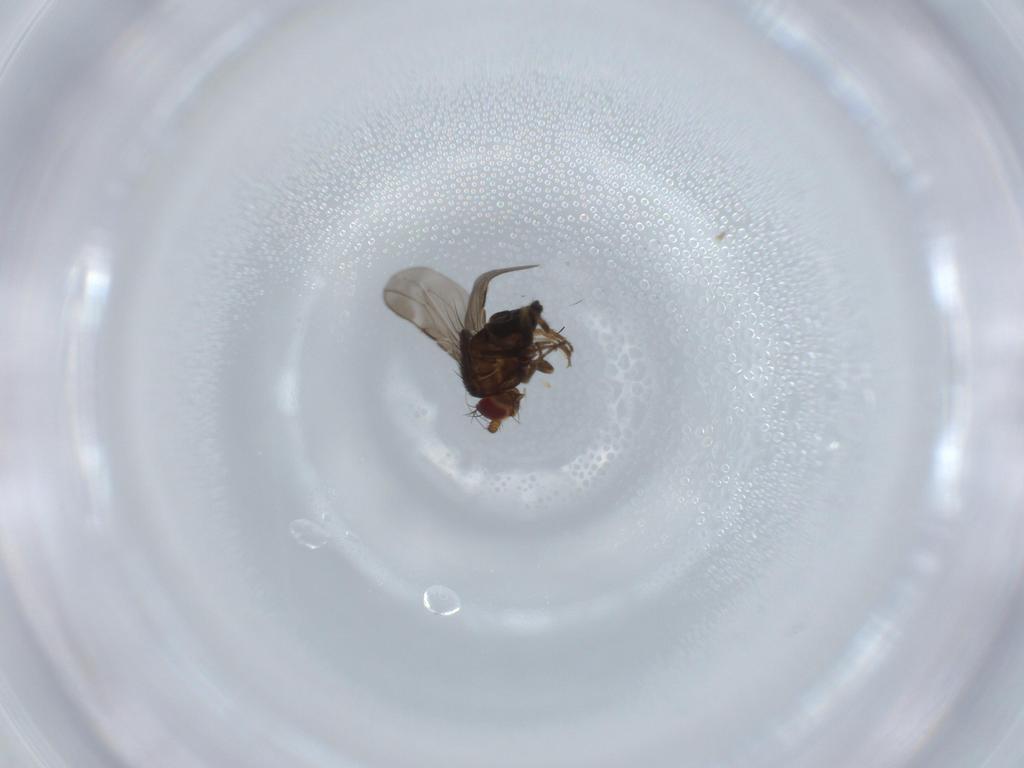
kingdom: Animalia
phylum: Arthropoda
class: Insecta
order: Diptera
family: Sphaeroceridae
